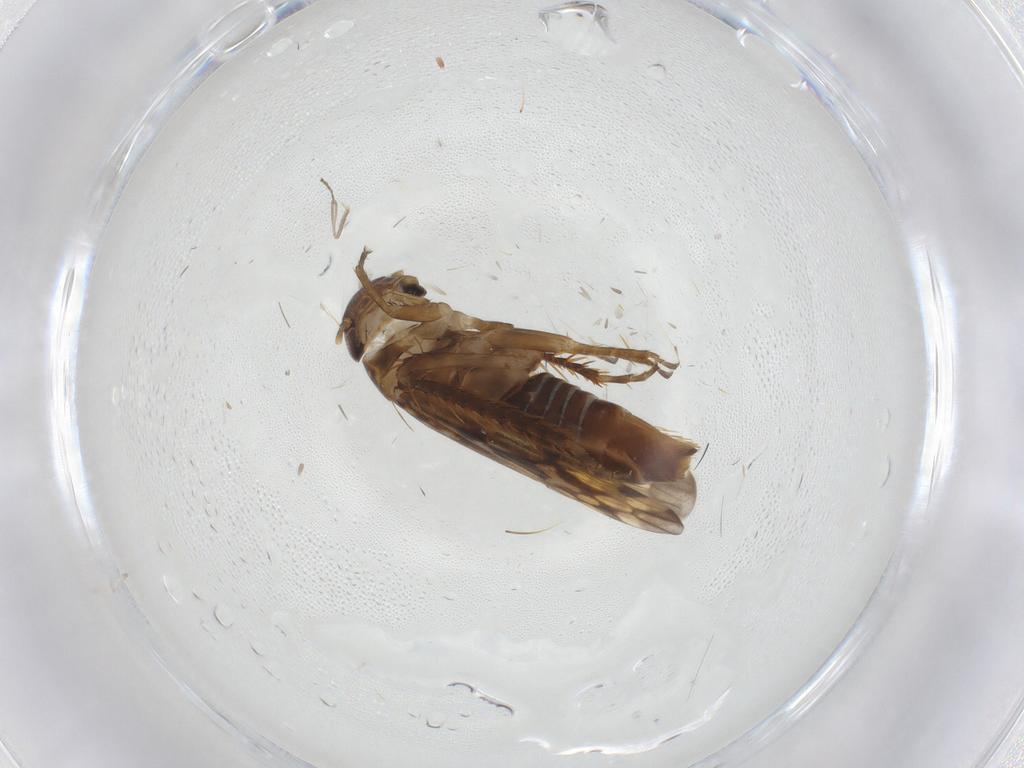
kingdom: Animalia
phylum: Arthropoda
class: Insecta
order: Hemiptera
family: Cicadellidae
